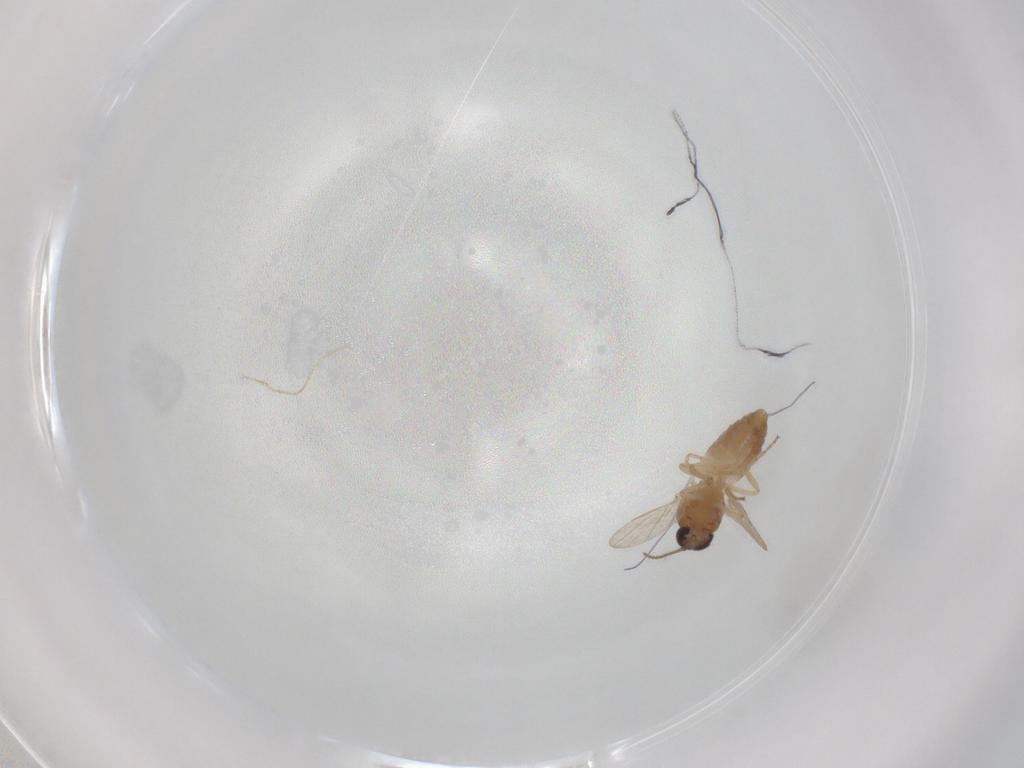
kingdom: Animalia
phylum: Arthropoda
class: Insecta
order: Diptera
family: Ceratopogonidae
